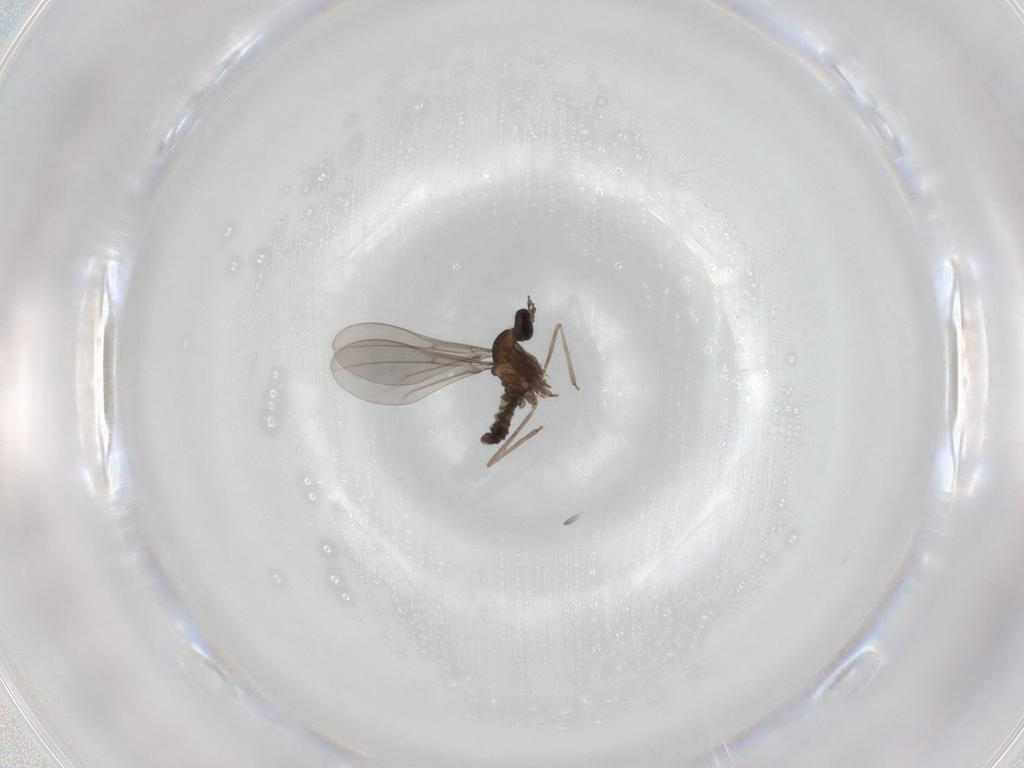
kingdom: Animalia
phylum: Arthropoda
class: Insecta
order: Diptera
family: Cecidomyiidae
